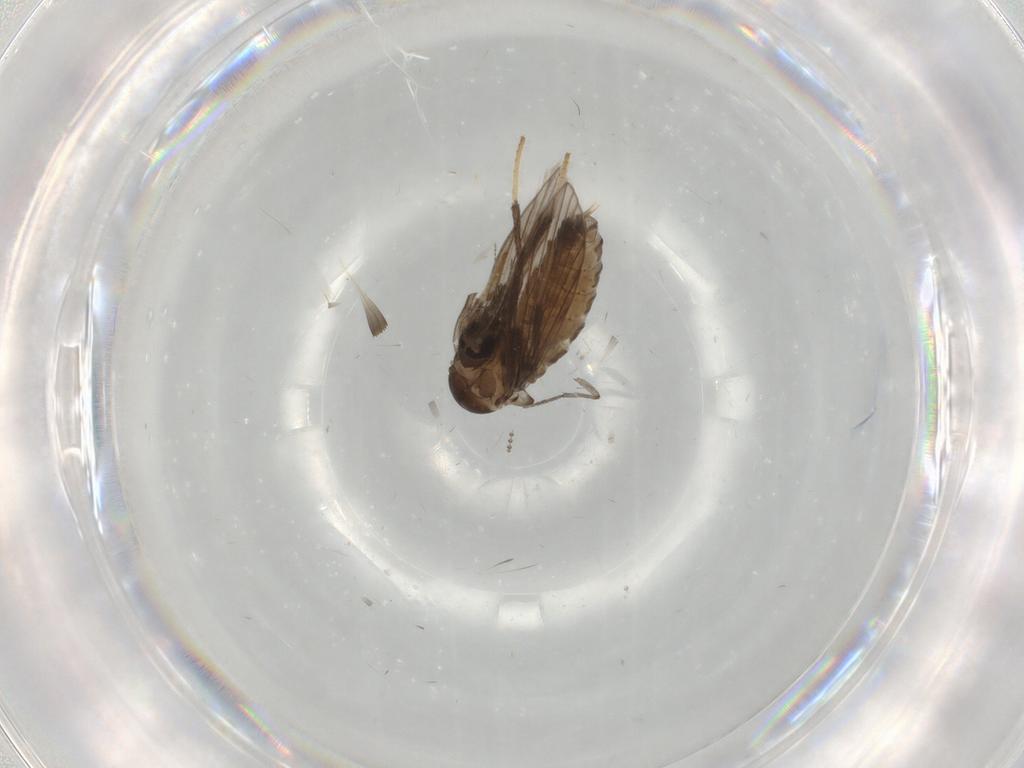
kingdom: Animalia
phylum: Arthropoda
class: Insecta
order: Diptera
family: Psychodidae
